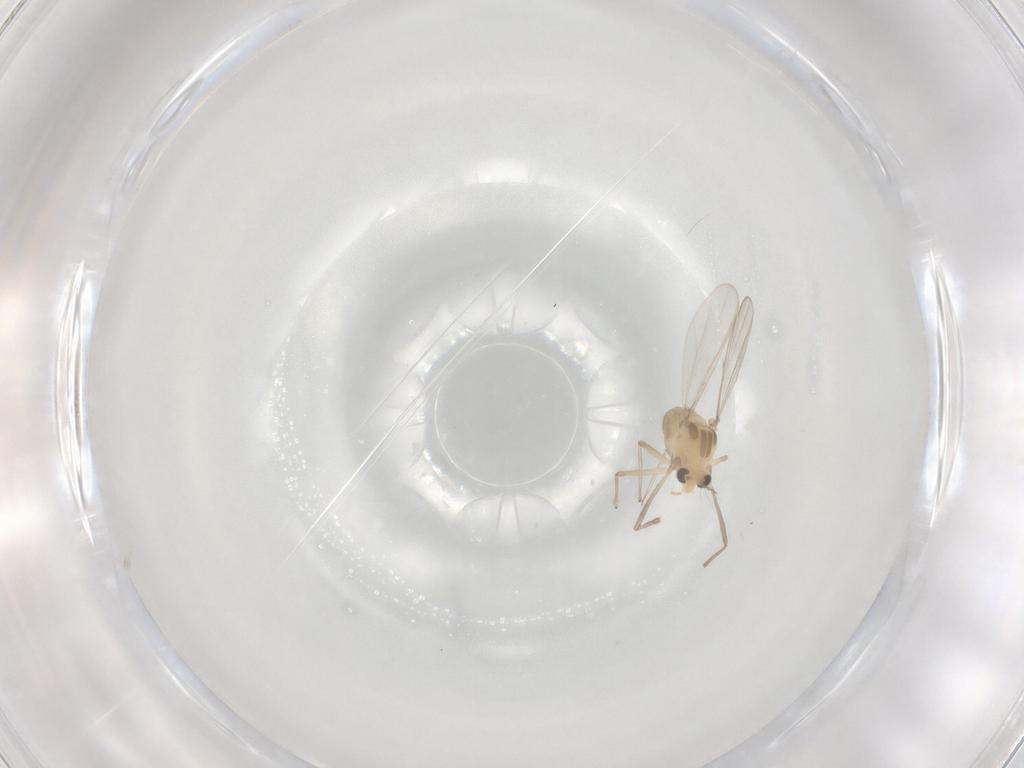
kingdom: Animalia
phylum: Arthropoda
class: Insecta
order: Diptera
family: Chironomidae
